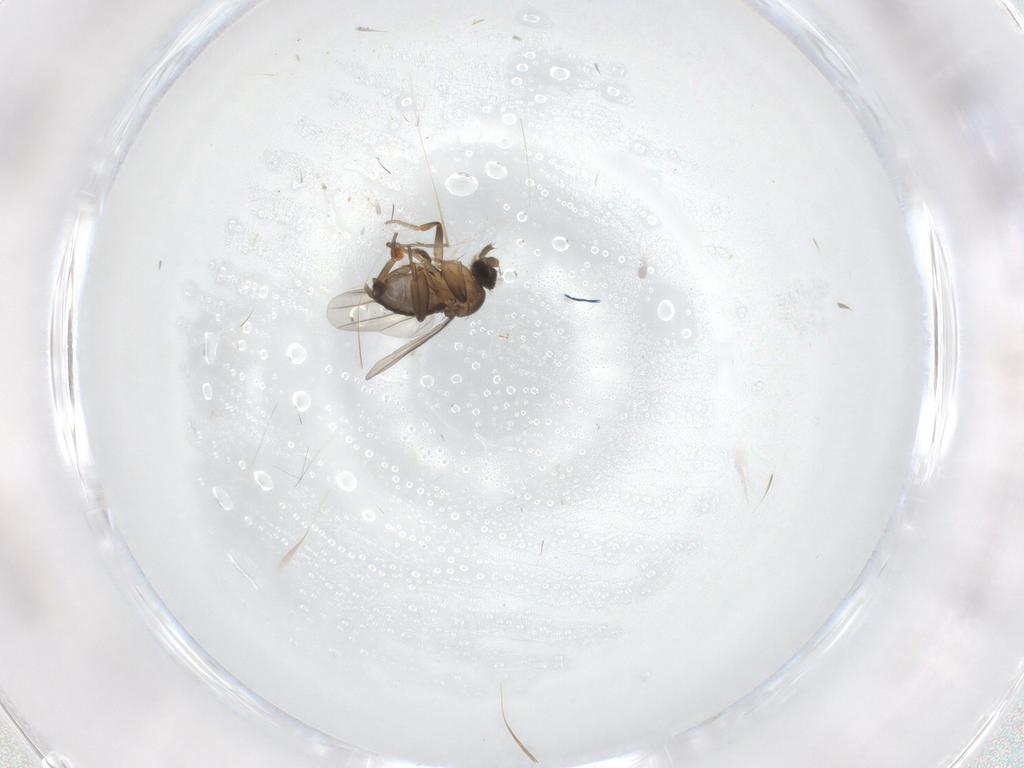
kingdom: Animalia
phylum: Arthropoda
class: Insecta
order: Diptera
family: Phoridae
